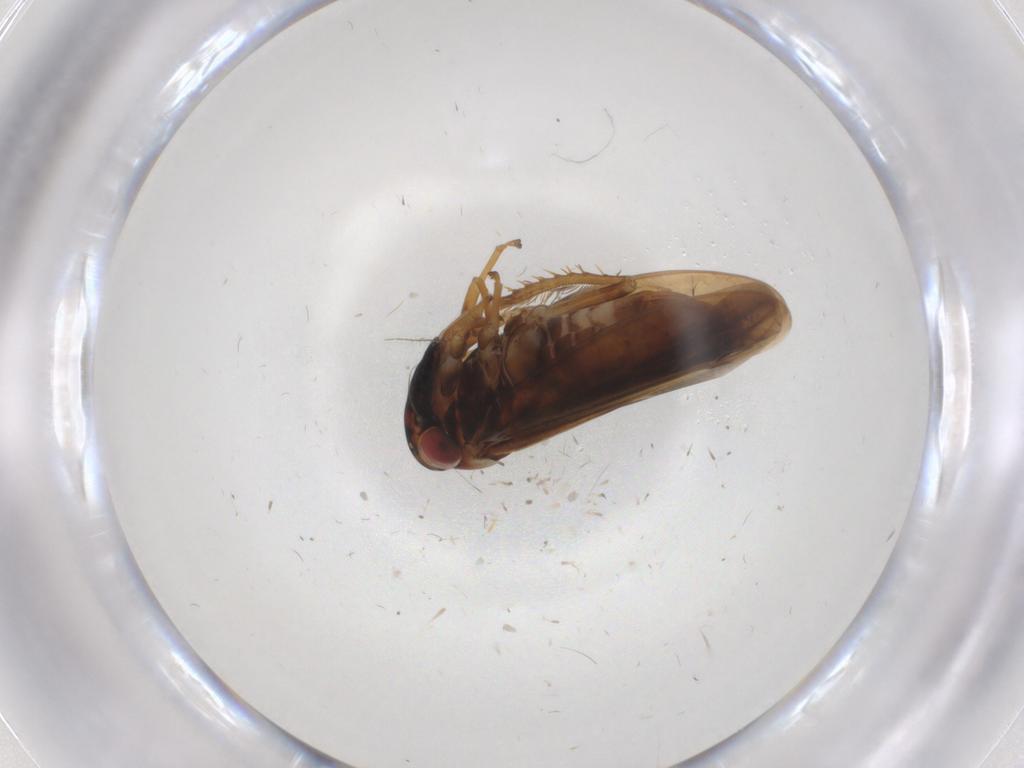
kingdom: Animalia
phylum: Arthropoda
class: Insecta
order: Hemiptera
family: Cicadellidae
